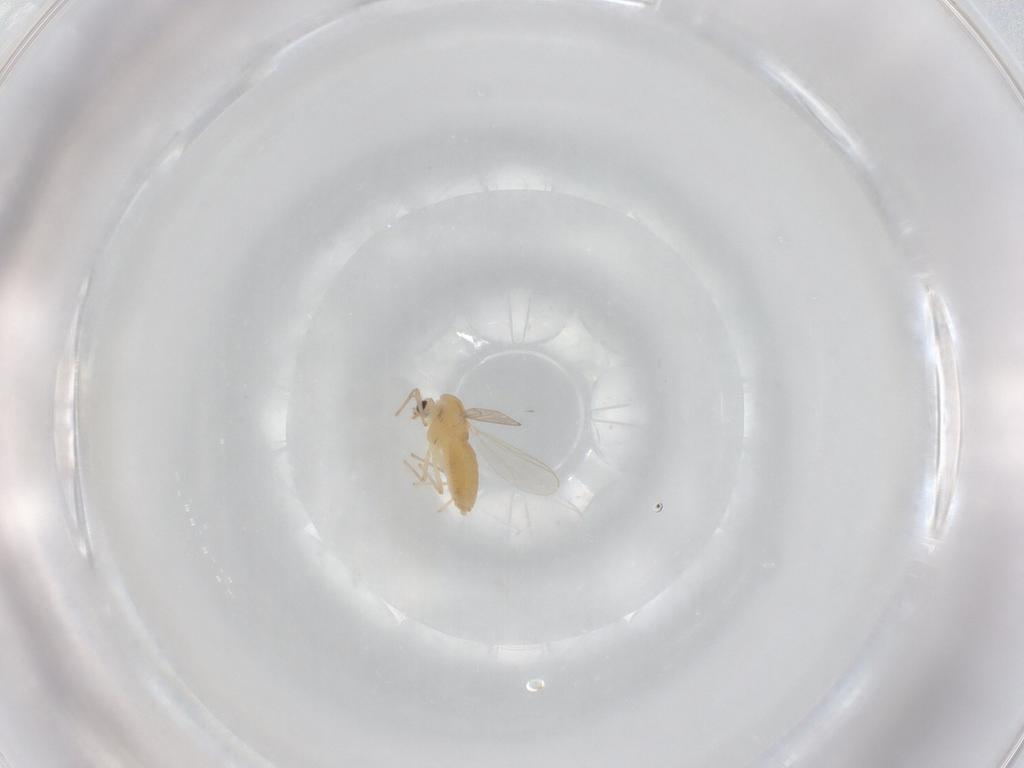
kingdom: Animalia
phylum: Arthropoda
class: Insecta
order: Diptera
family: Chironomidae
